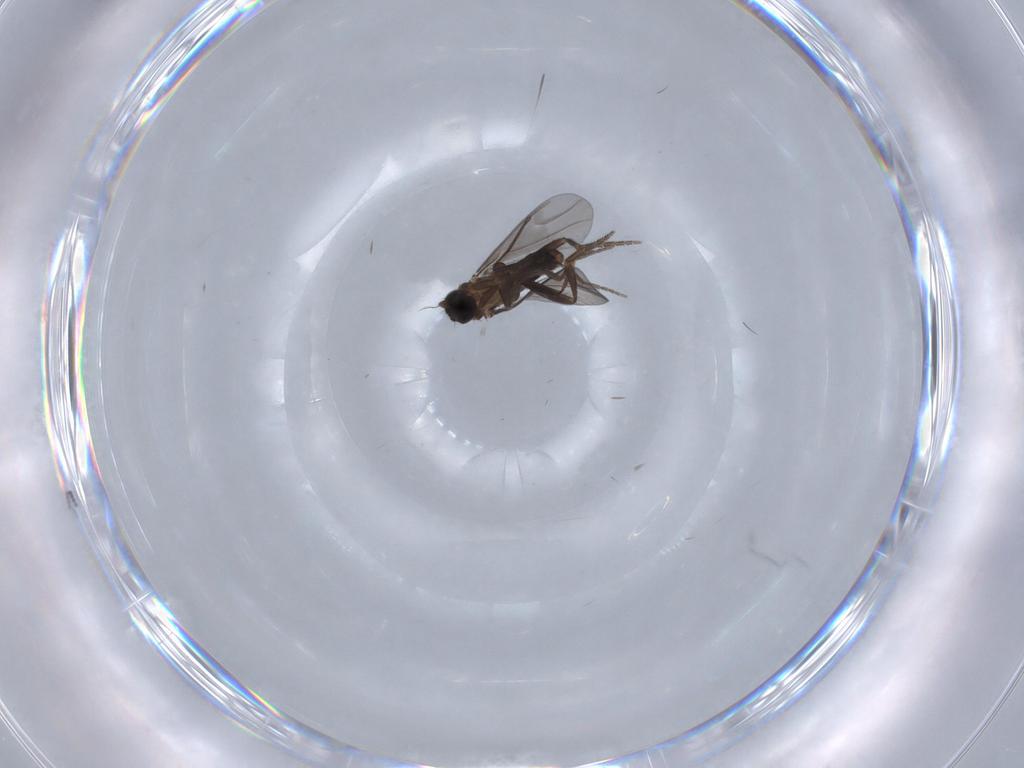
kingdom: Animalia
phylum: Arthropoda
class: Insecta
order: Diptera
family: Phoridae
